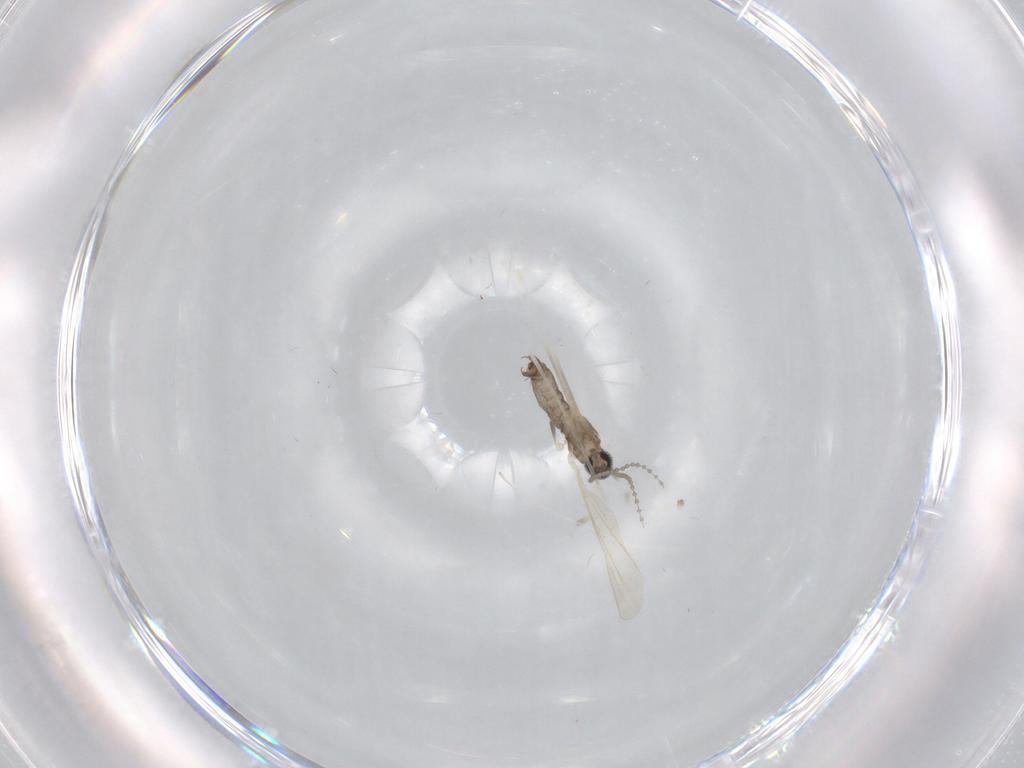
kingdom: Animalia
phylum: Arthropoda
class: Insecta
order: Diptera
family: Cecidomyiidae
